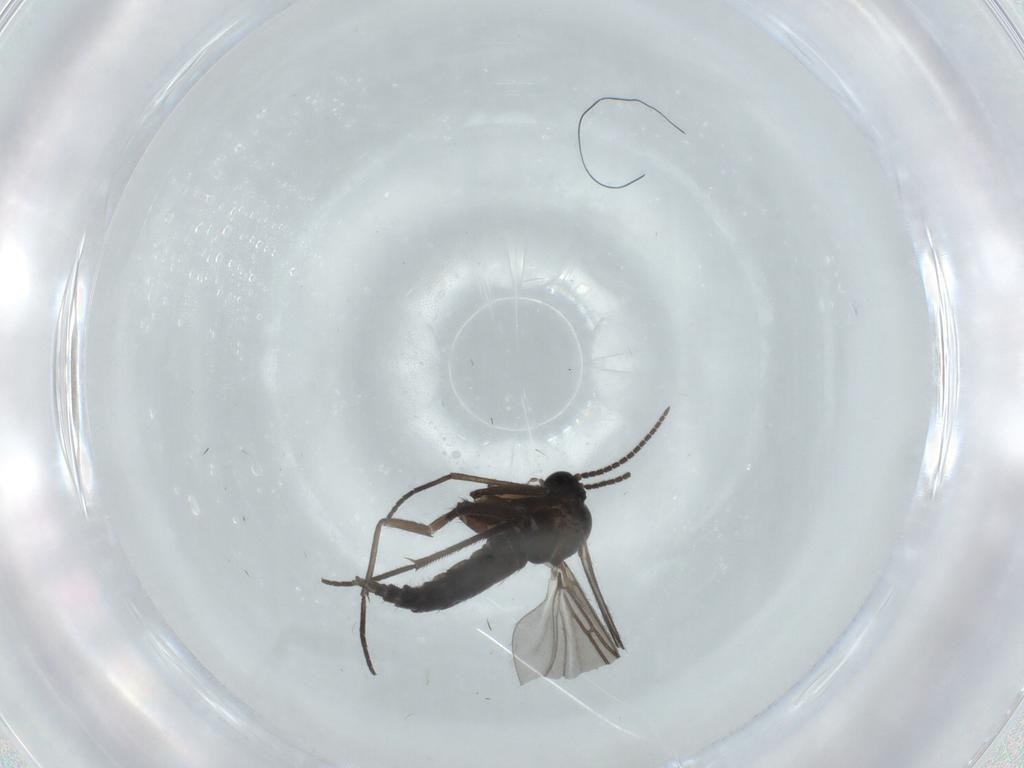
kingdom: Animalia
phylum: Arthropoda
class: Insecta
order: Diptera
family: Sciaridae
